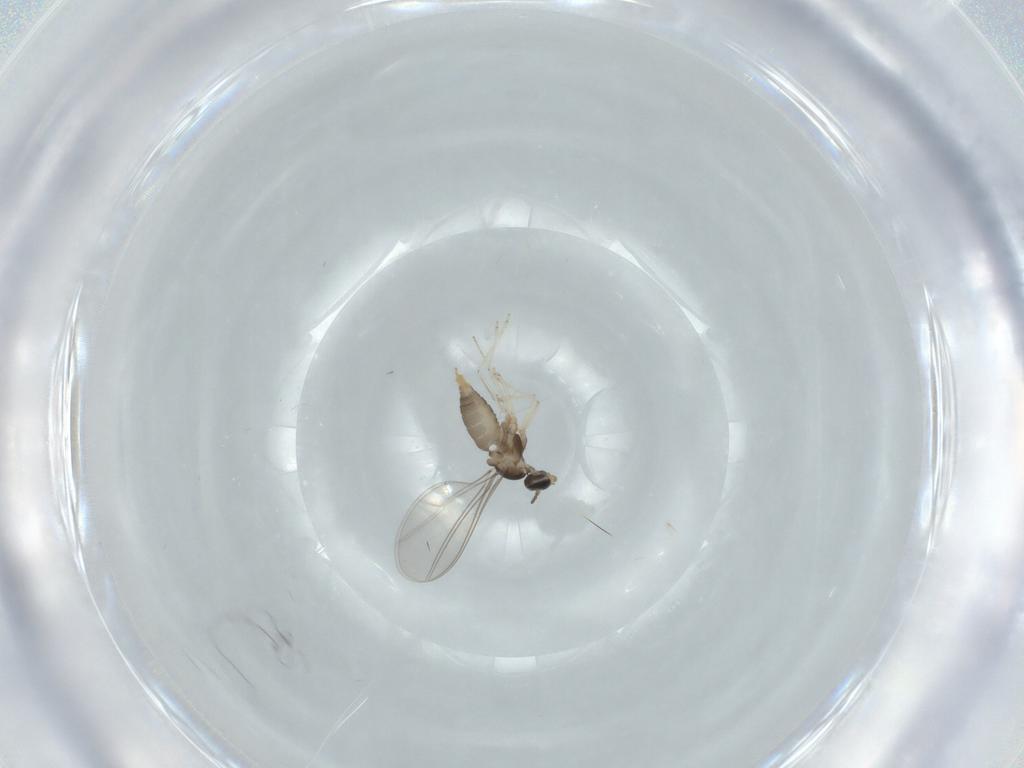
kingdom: Animalia
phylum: Arthropoda
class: Insecta
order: Diptera
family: Cecidomyiidae
